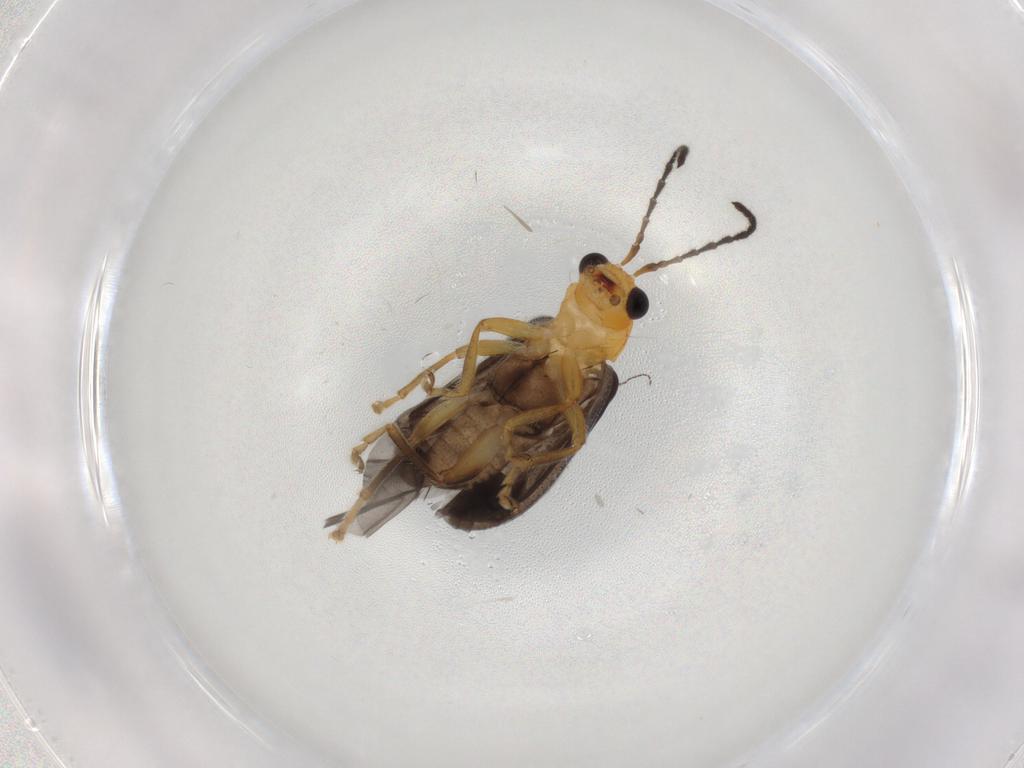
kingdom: Animalia
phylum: Arthropoda
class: Insecta
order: Coleoptera
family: Chrysomelidae
